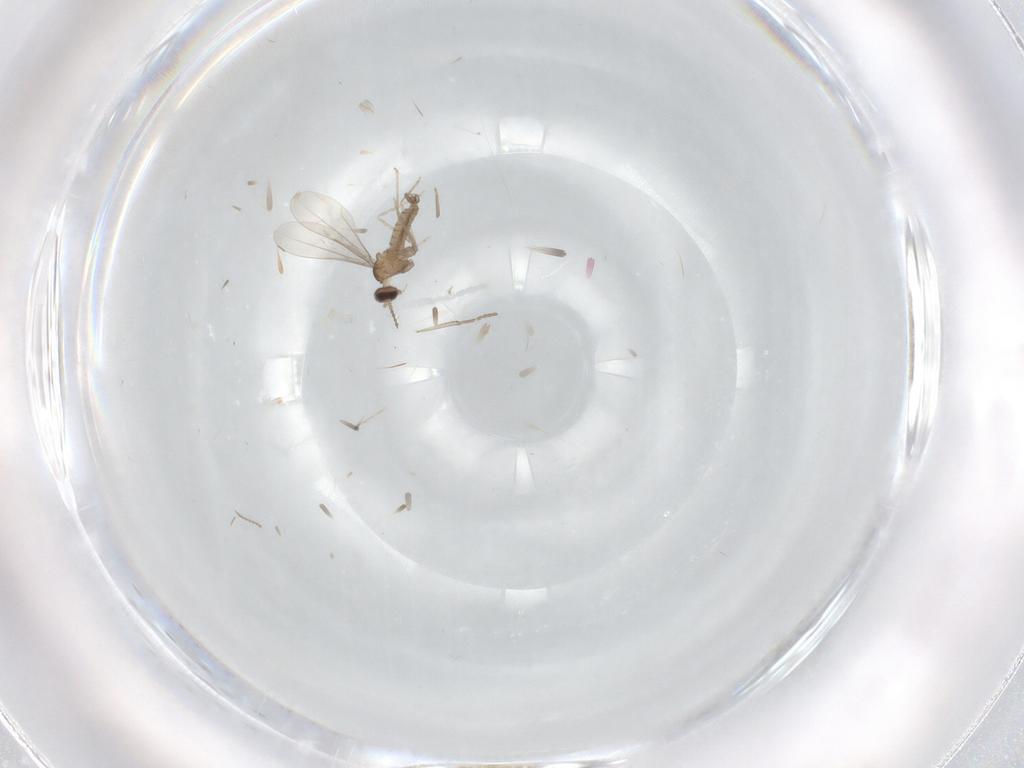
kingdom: Animalia
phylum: Arthropoda
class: Insecta
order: Diptera
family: Cecidomyiidae
